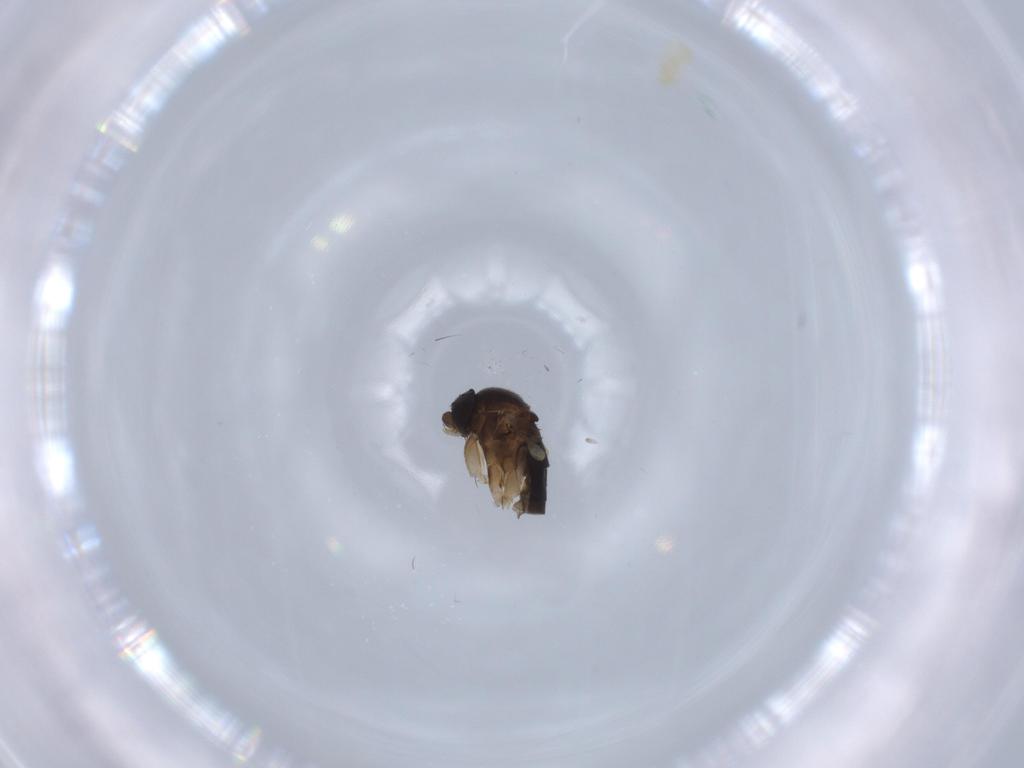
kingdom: Animalia
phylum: Arthropoda
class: Insecta
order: Diptera
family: Phoridae
